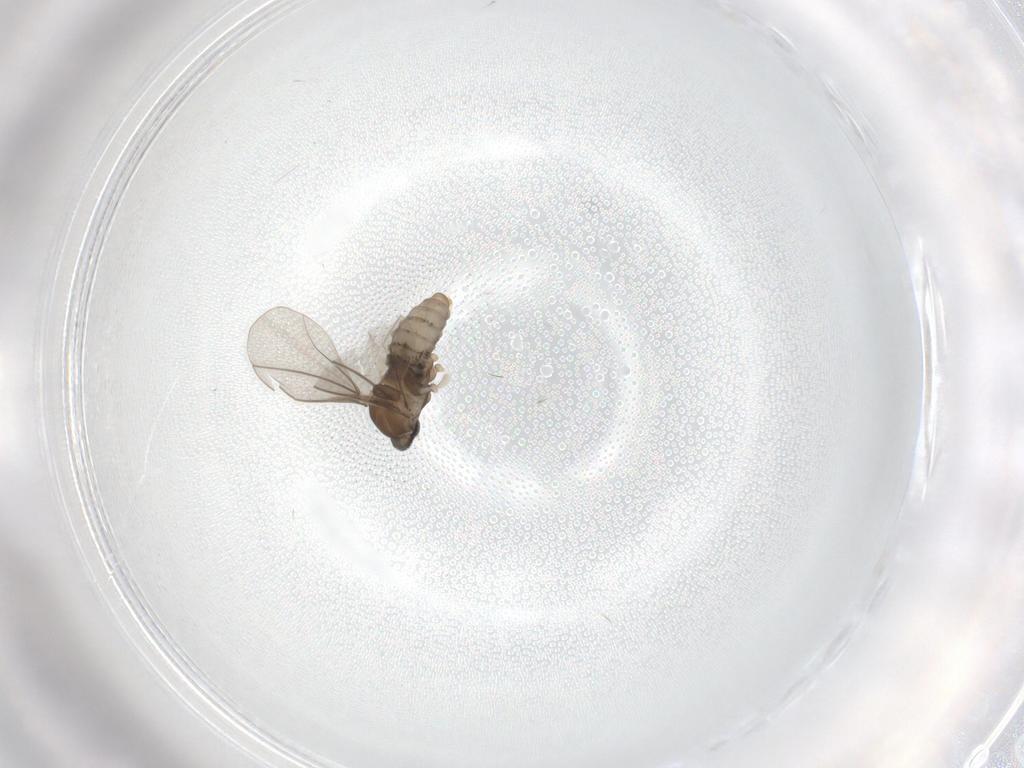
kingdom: Animalia
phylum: Arthropoda
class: Insecta
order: Diptera
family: Cecidomyiidae
